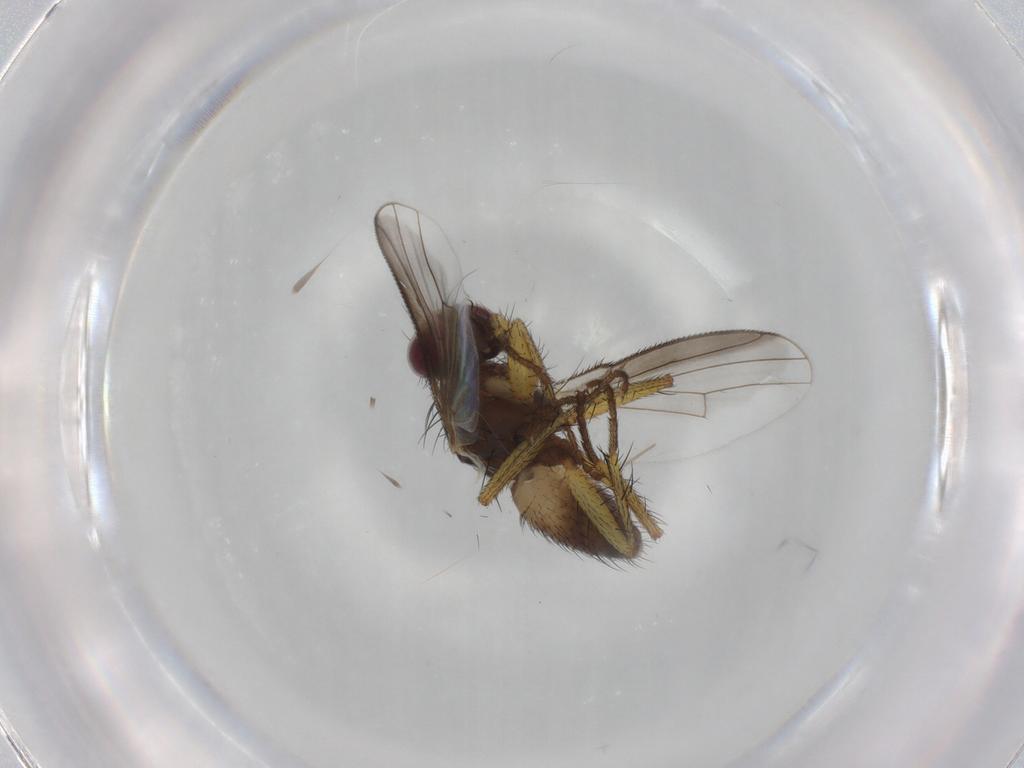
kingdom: Animalia
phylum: Arthropoda
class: Insecta
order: Diptera
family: Muscidae
